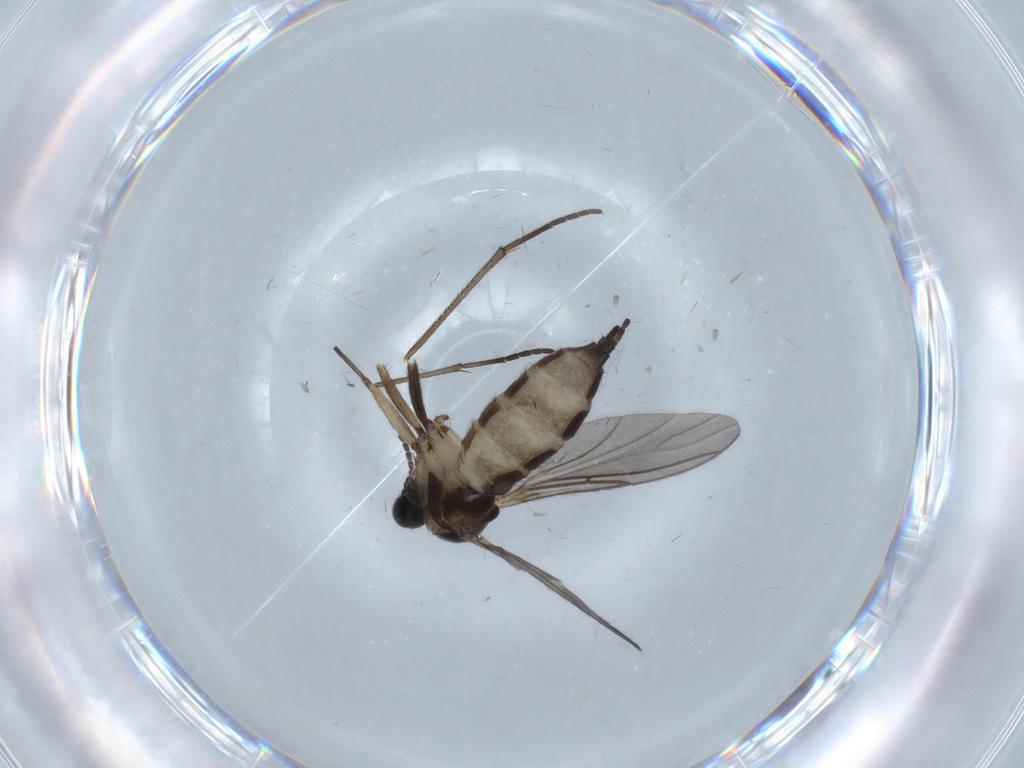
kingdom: Animalia
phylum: Arthropoda
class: Insecta
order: Diptera
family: Sciaridae
